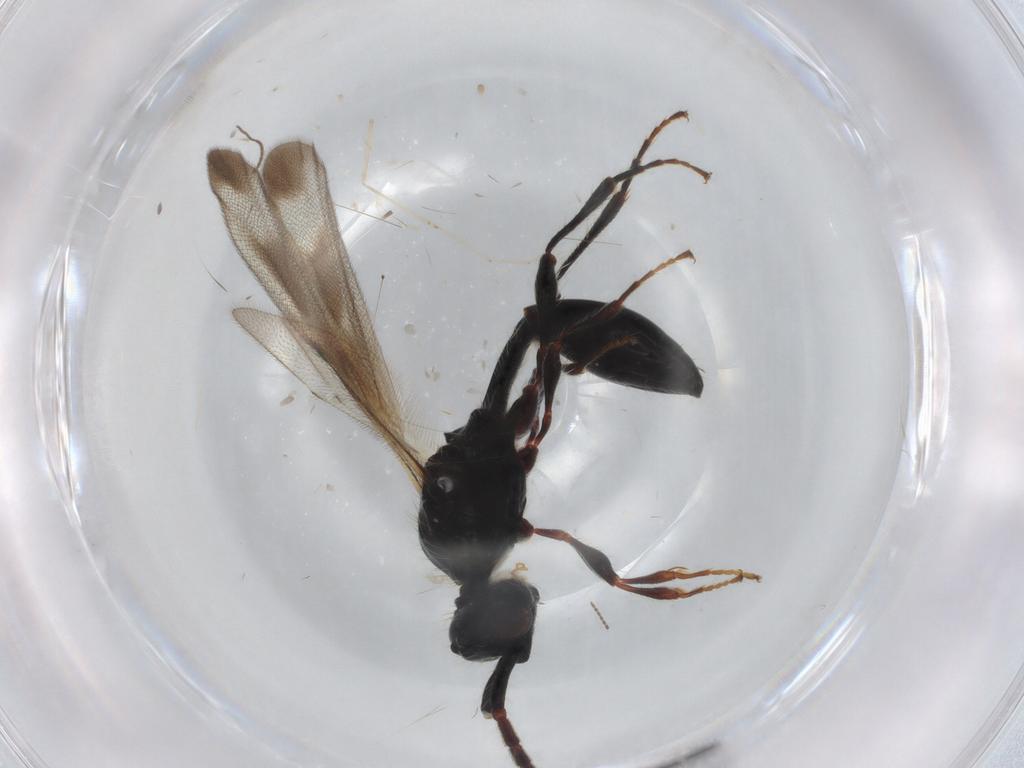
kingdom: Animalia
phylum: Arthropoda
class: Insecta
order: Hymenoptera
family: Diapriidae
